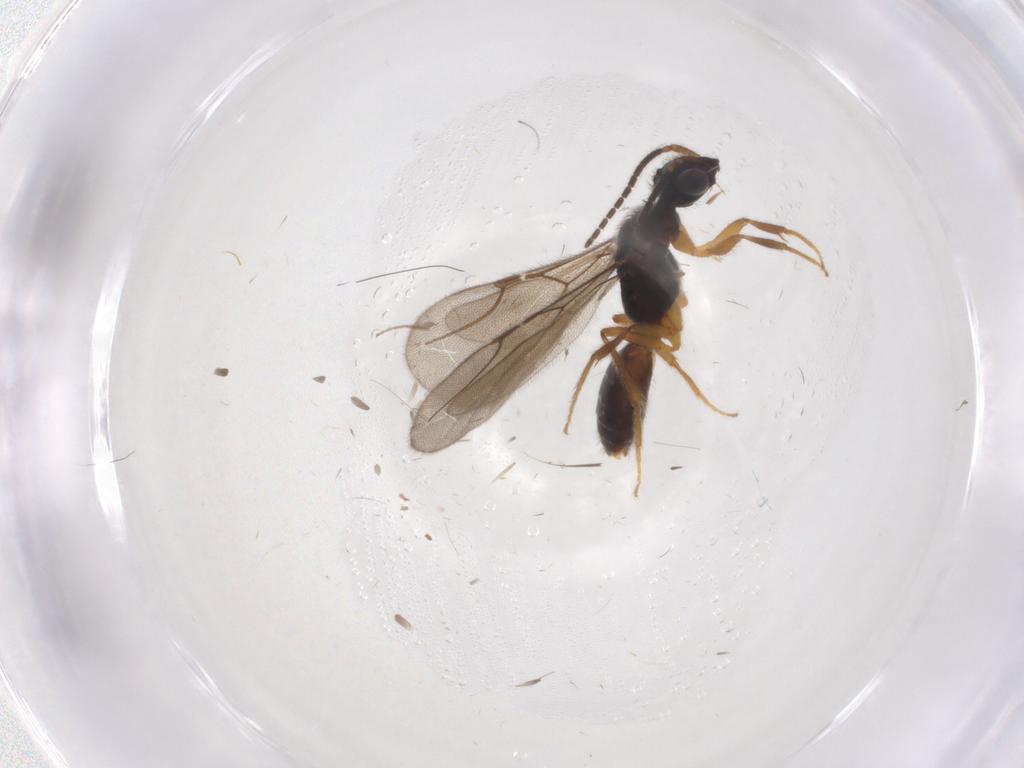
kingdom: Animalia
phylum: Arthropoda
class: Insecta
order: Hymenoptera
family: Bethylidae
